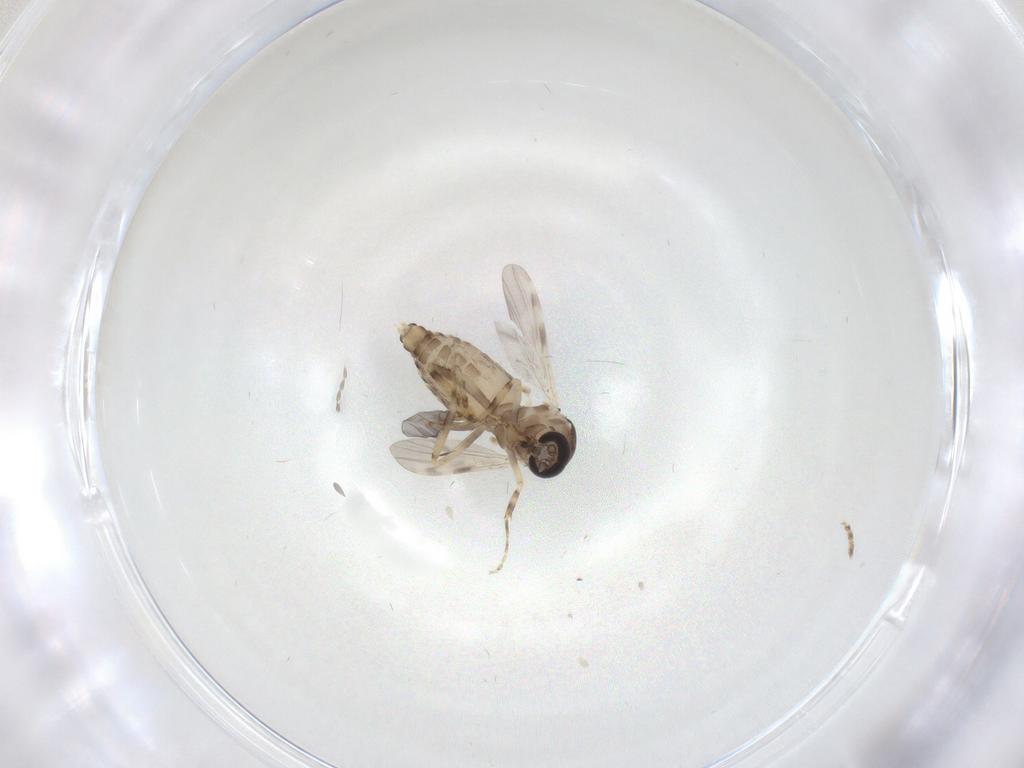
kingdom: Animalia
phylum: Arthropoda
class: Insecta
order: Diptera
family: Ceratopogonidae
